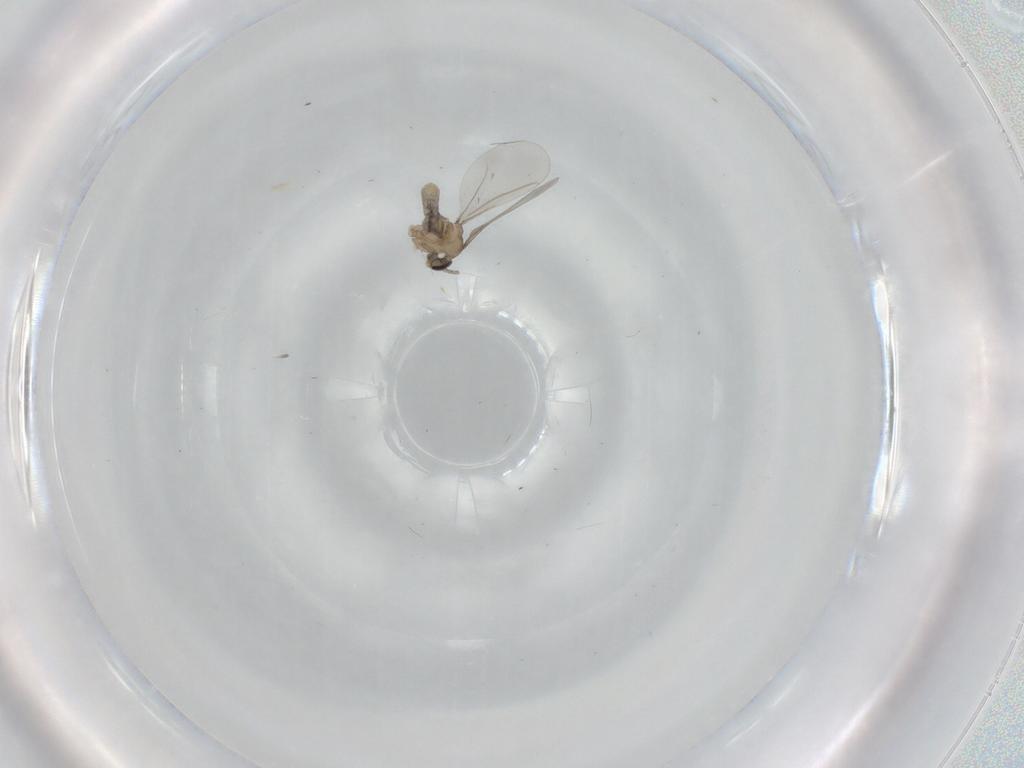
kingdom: Animalia
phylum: Arthropoda
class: Insecta
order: Diptera
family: Cecidomyiidae
